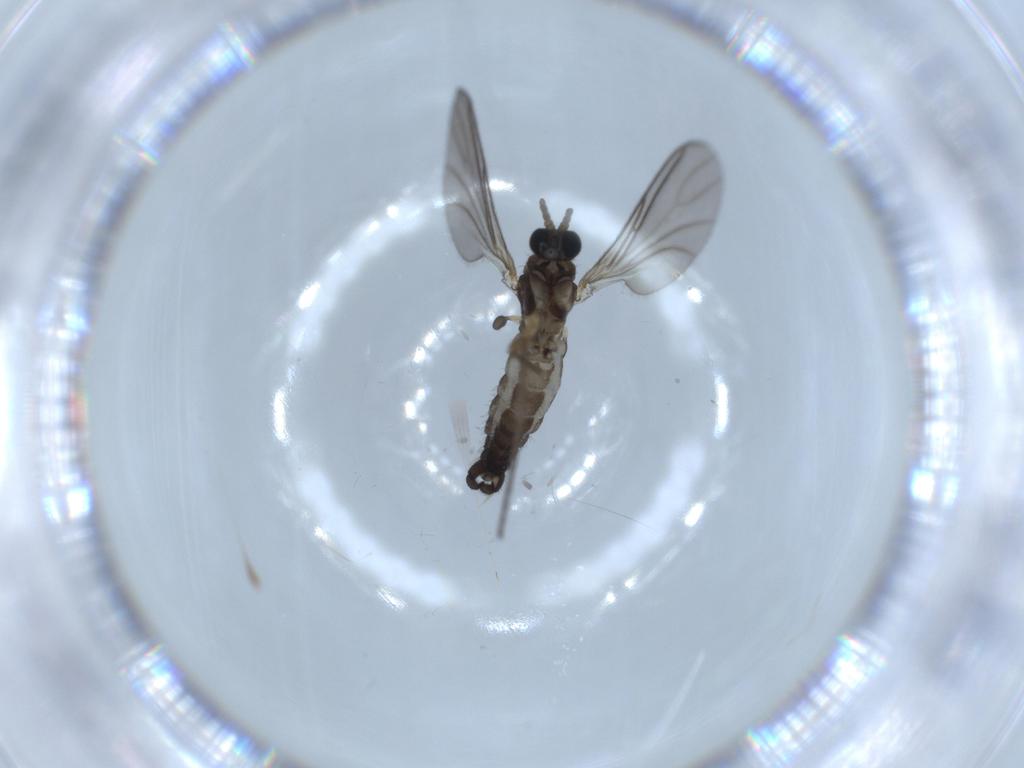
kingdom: Animalia
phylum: Arthropoda
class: Insecta
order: Diptera
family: Sciaridae
